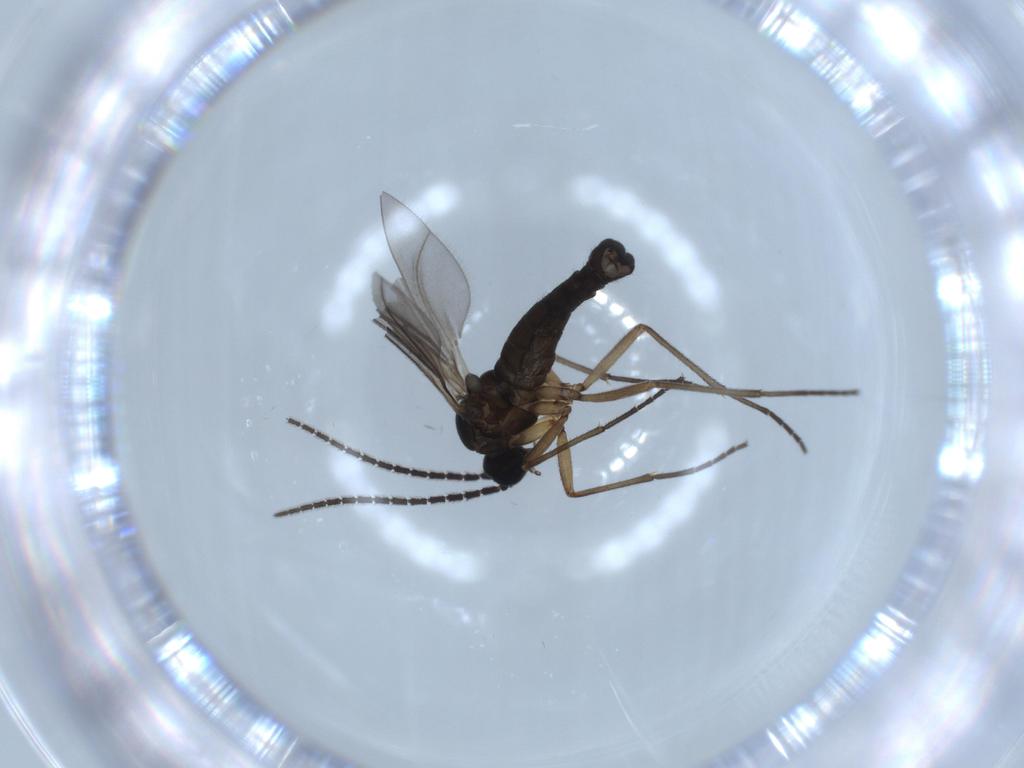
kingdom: Animalia
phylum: Arthropoda
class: Insecta
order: Diptera
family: Sciaridae
